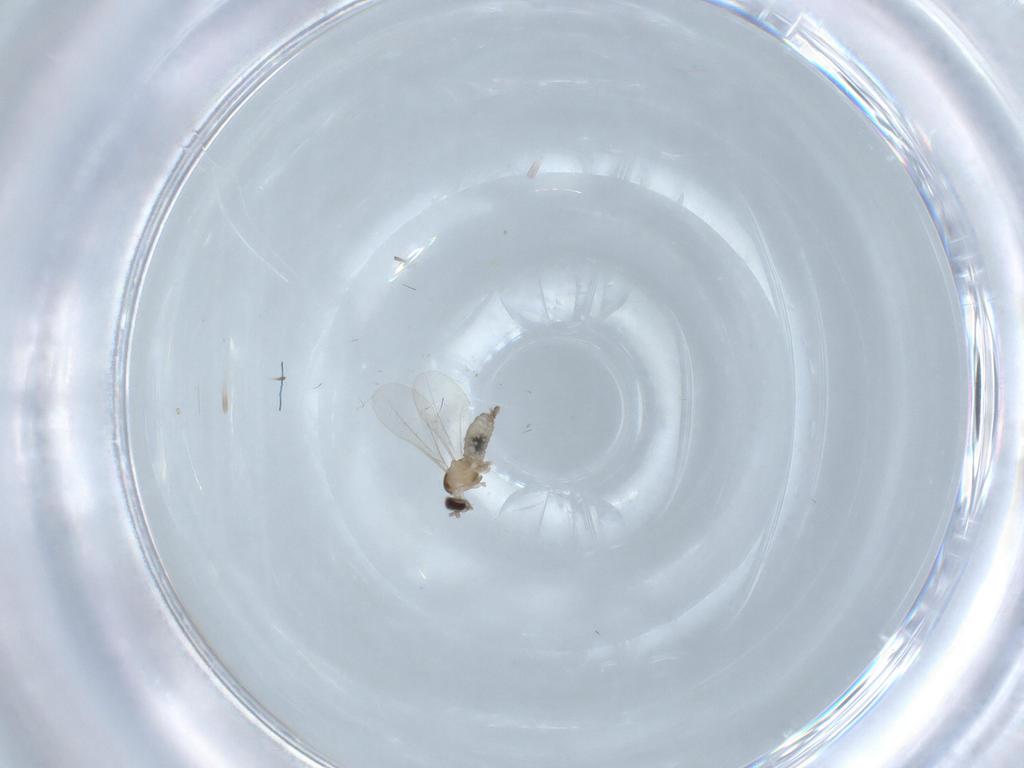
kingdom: Animalia
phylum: Arthropoda
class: Insecta
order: Diptera
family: Cecidomyiidae
